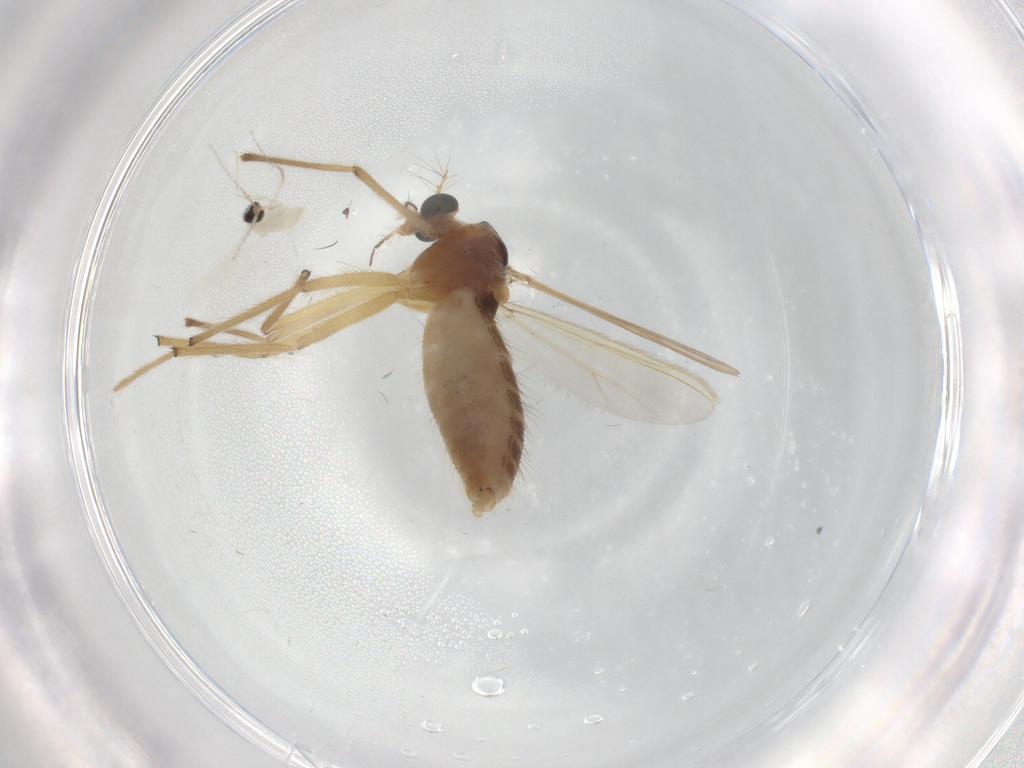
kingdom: Animalia
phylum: Arthropoda
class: Insecta
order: Diptera
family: Chironomidae
